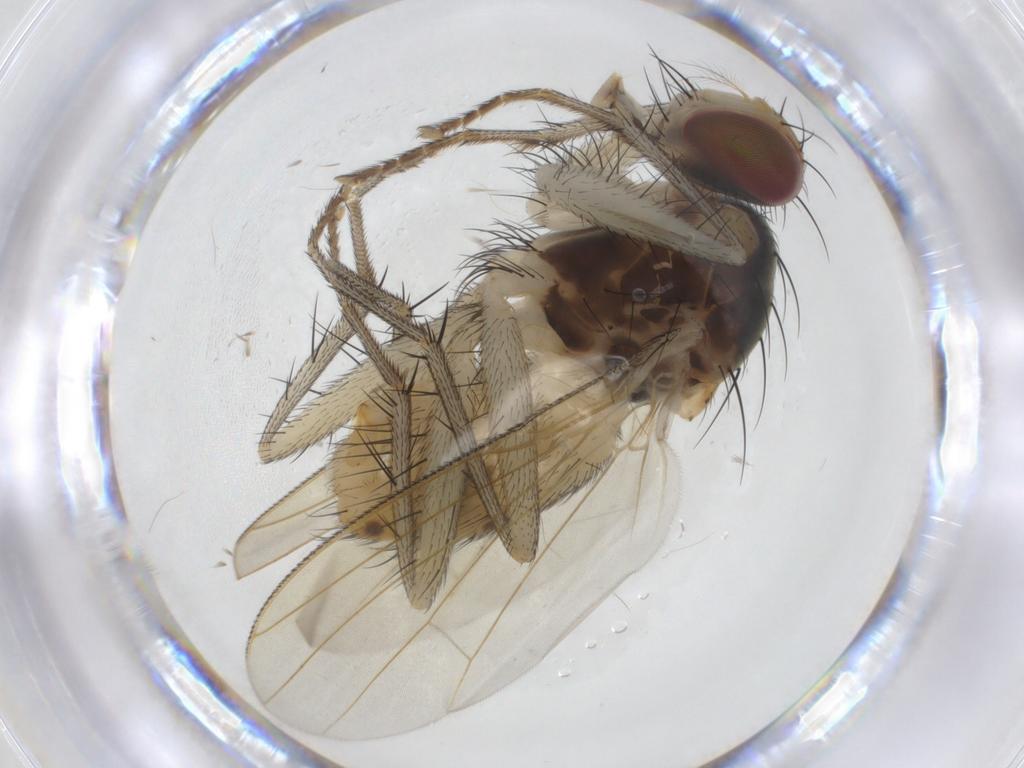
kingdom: Animalia
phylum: Arthropoda
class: Insecta
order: Diptera
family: Muscidae
